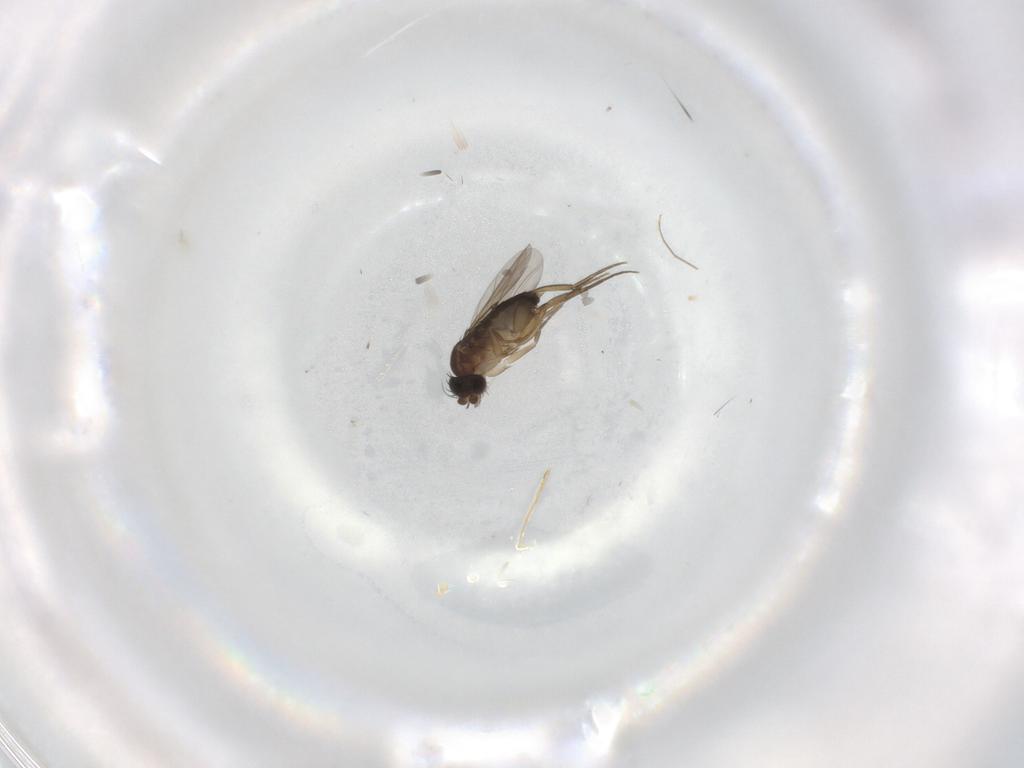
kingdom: Animalia
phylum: Arthropoda
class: Insecta
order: Diptera
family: Phoridae
